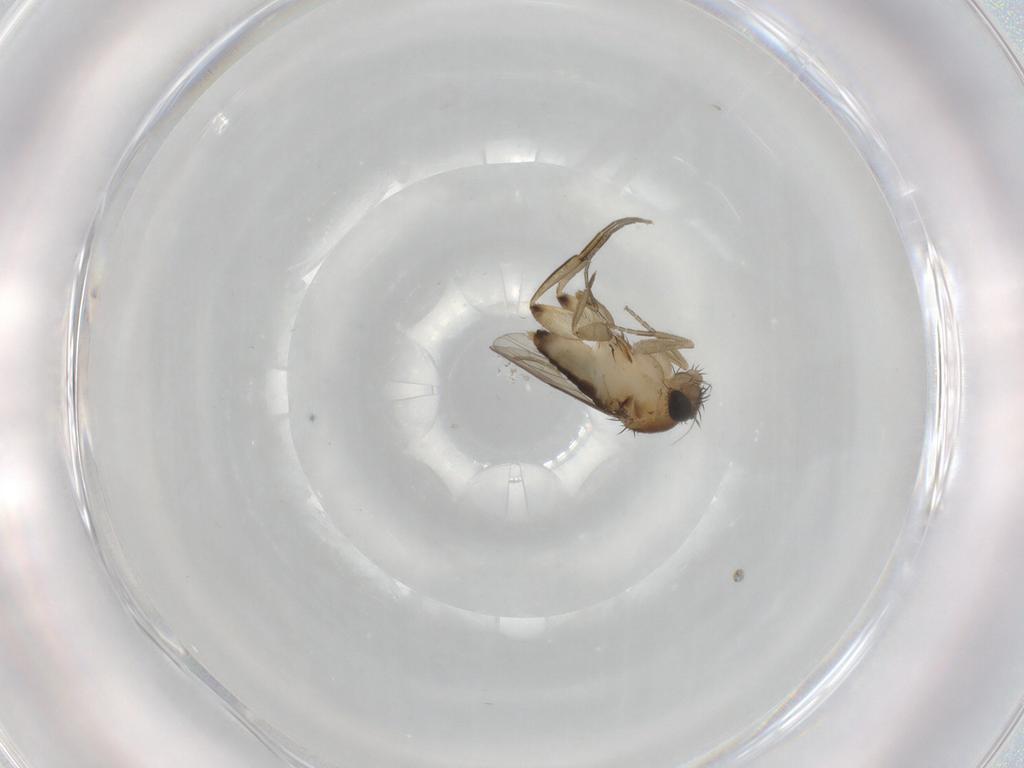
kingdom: Animalia
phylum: Arthropoda
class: Insecta
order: Diptera
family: Phoridae
